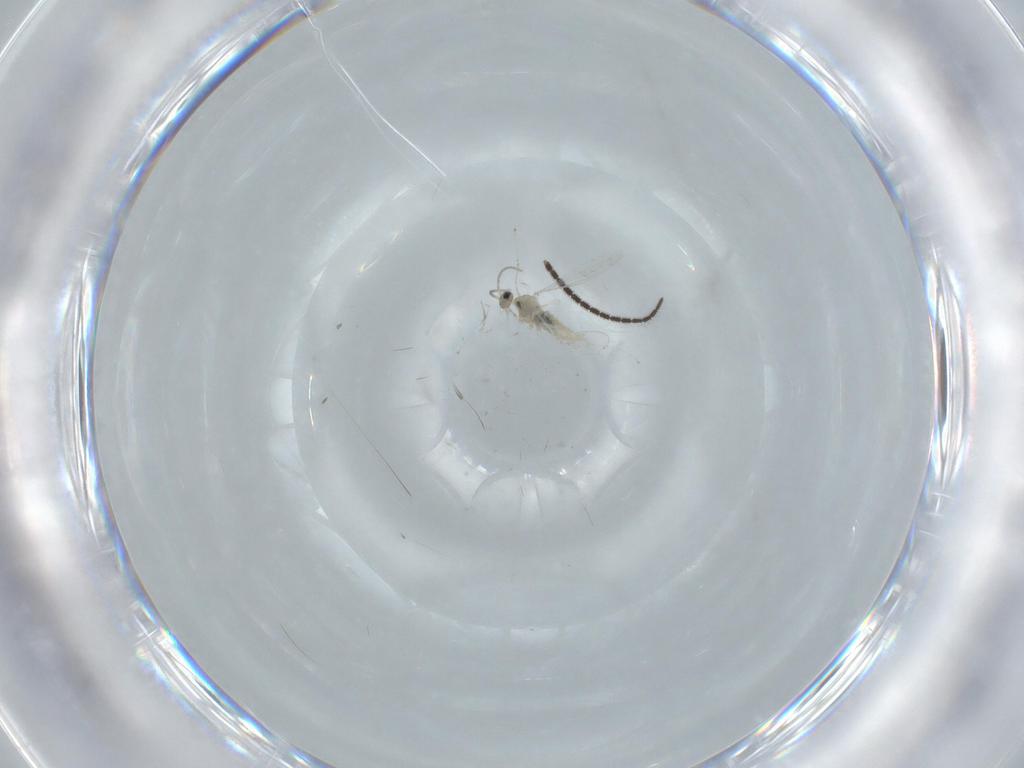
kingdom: Animalia
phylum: Arthropoda
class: Insecta
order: Diptera
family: Cecidomyiidae
